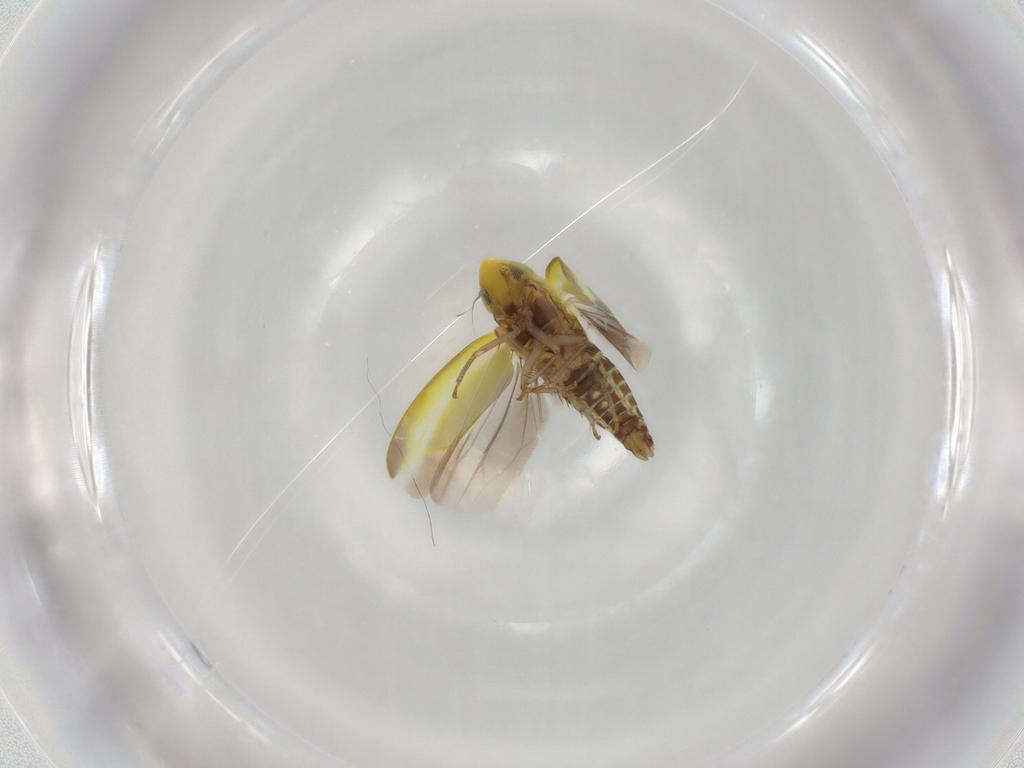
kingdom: Animalia
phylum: Arthropoda
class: Insecta
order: Hemiptera
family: Cicadellidae
